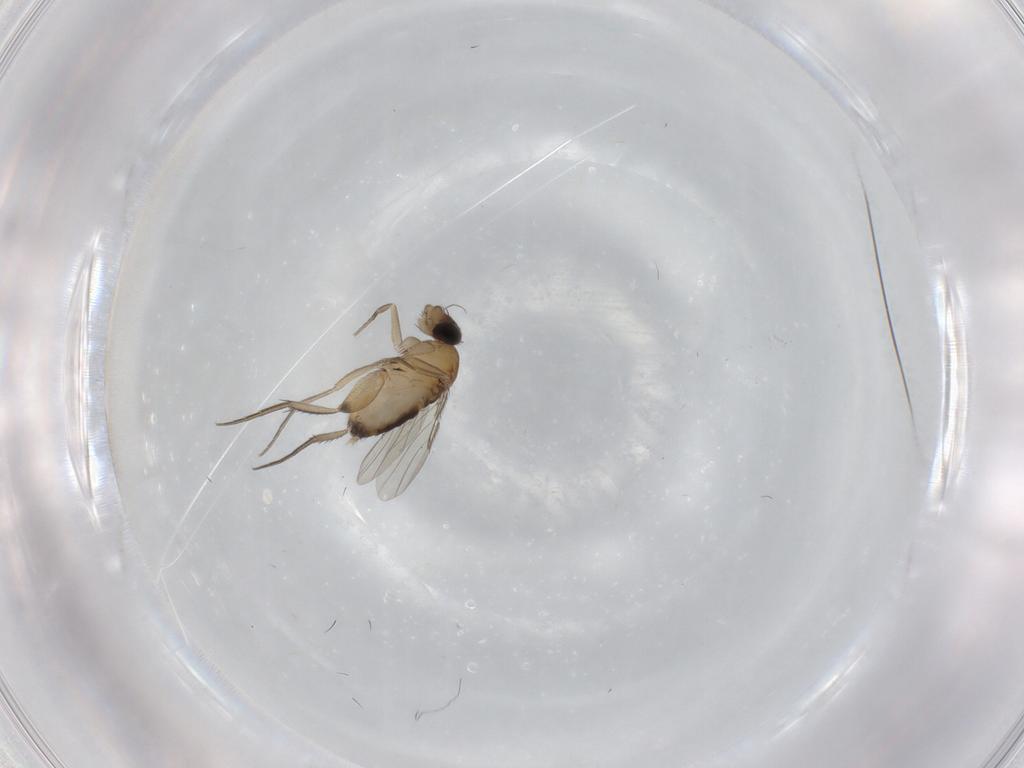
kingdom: Animalia
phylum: Arthropoda
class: Insecta
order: Diptera
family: Phoridae
